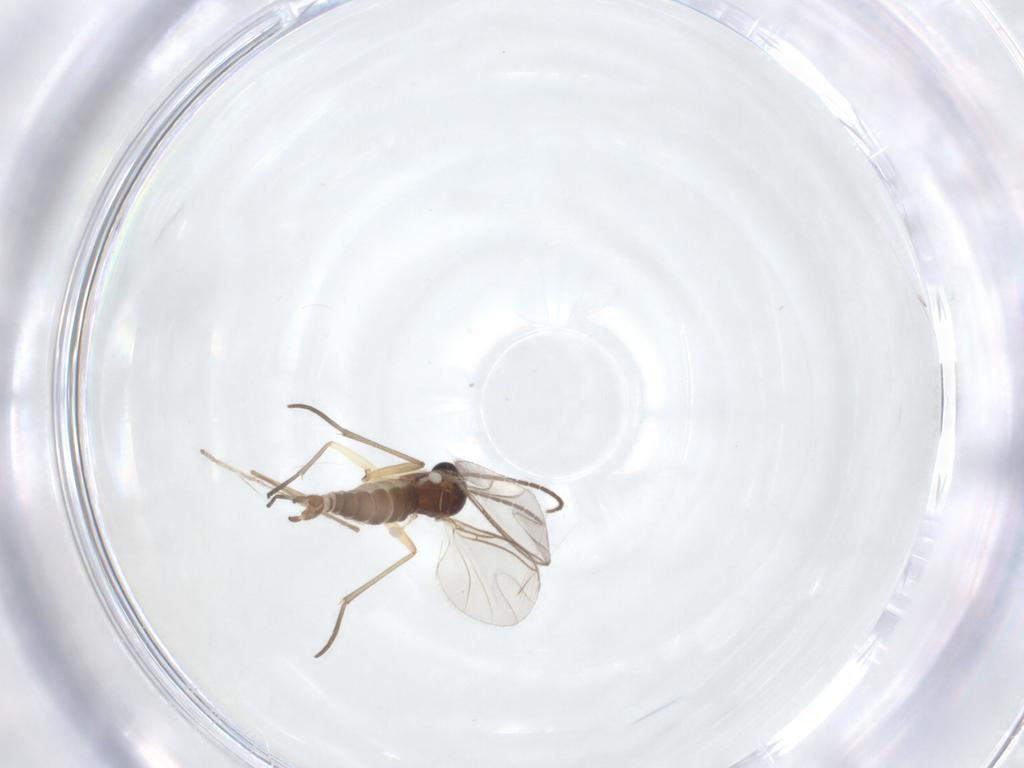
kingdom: Animalia
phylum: Arthropoda
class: Insecta
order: Diptera
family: Sciaridae
